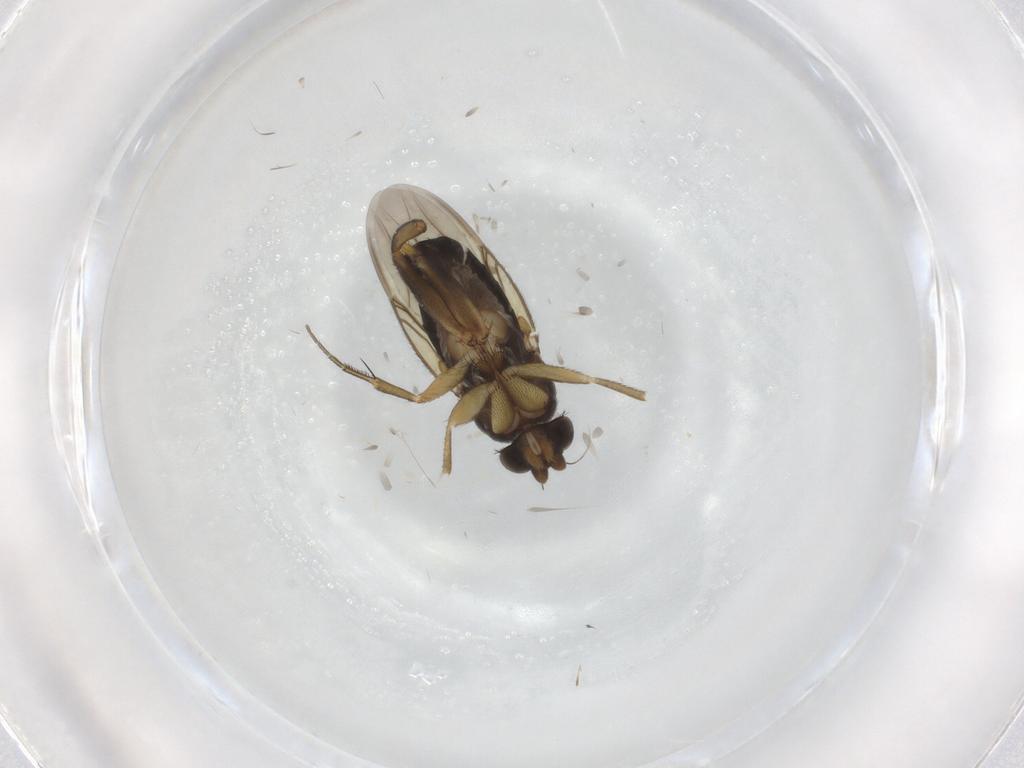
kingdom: Animalia
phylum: Arthropoda
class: Insecta
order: Diptera
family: Phoridae
